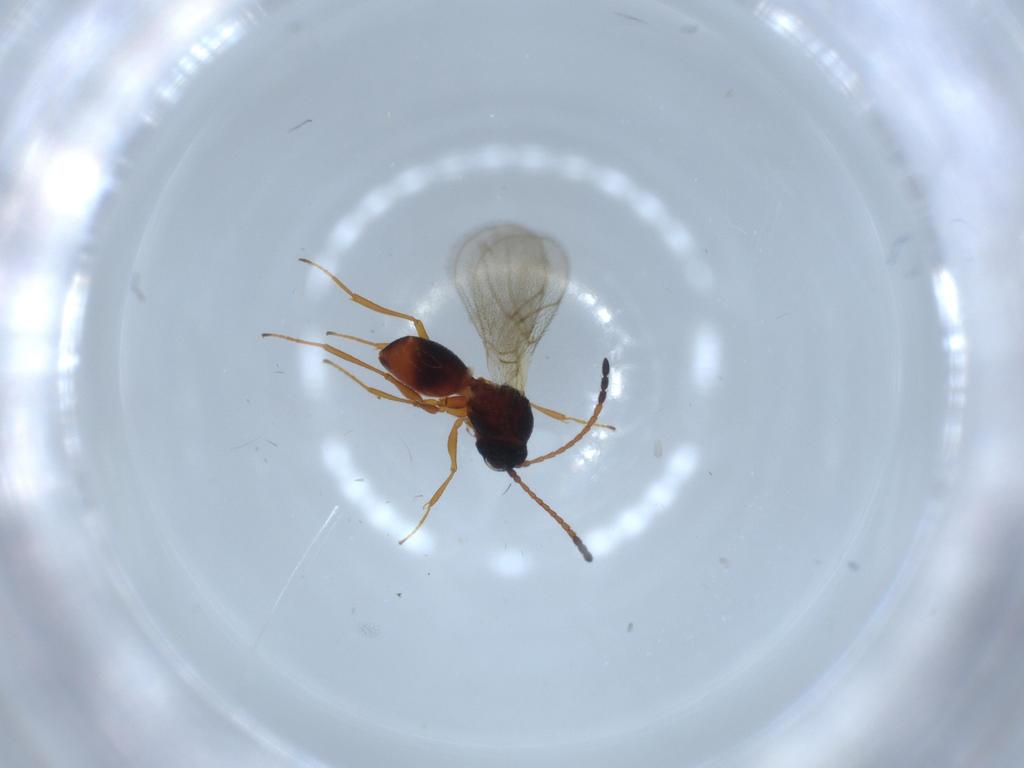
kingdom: Animalia
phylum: Arthropoda
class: Insecta
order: Hymenoptera
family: Figitidae
